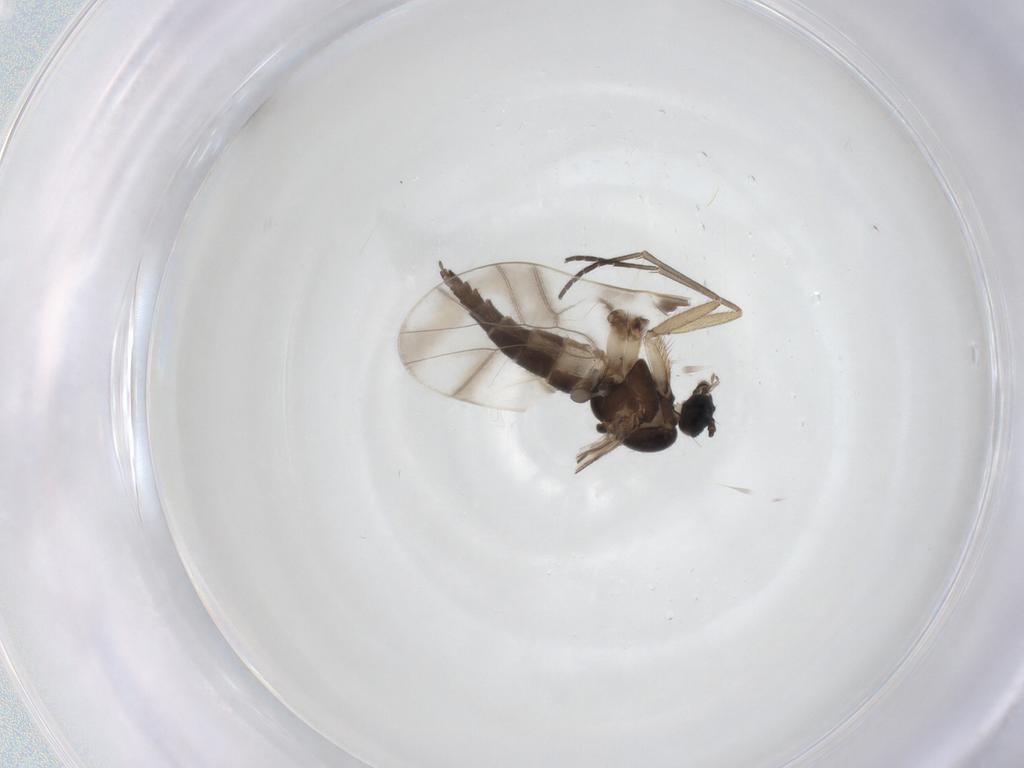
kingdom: Animalia
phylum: Arthropoda
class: Insecta
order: Diptera
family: Sciaridae
